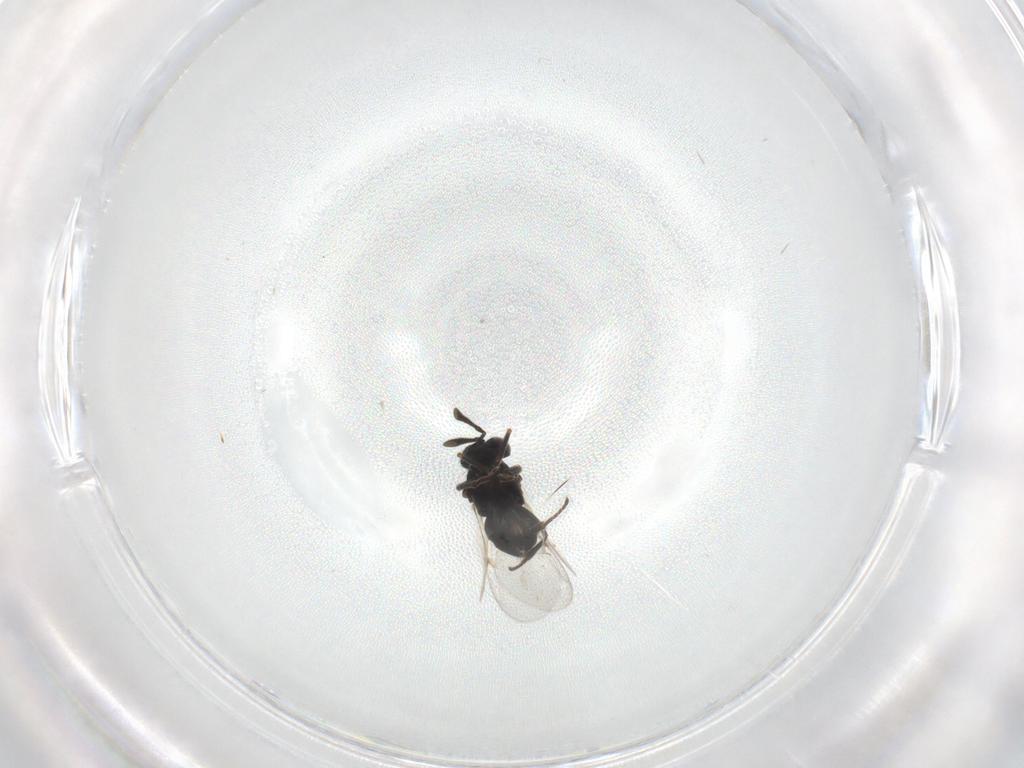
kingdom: Animalia
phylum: Arthropoda
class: Insecta
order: Hymenoptera
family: Encyrtidae
